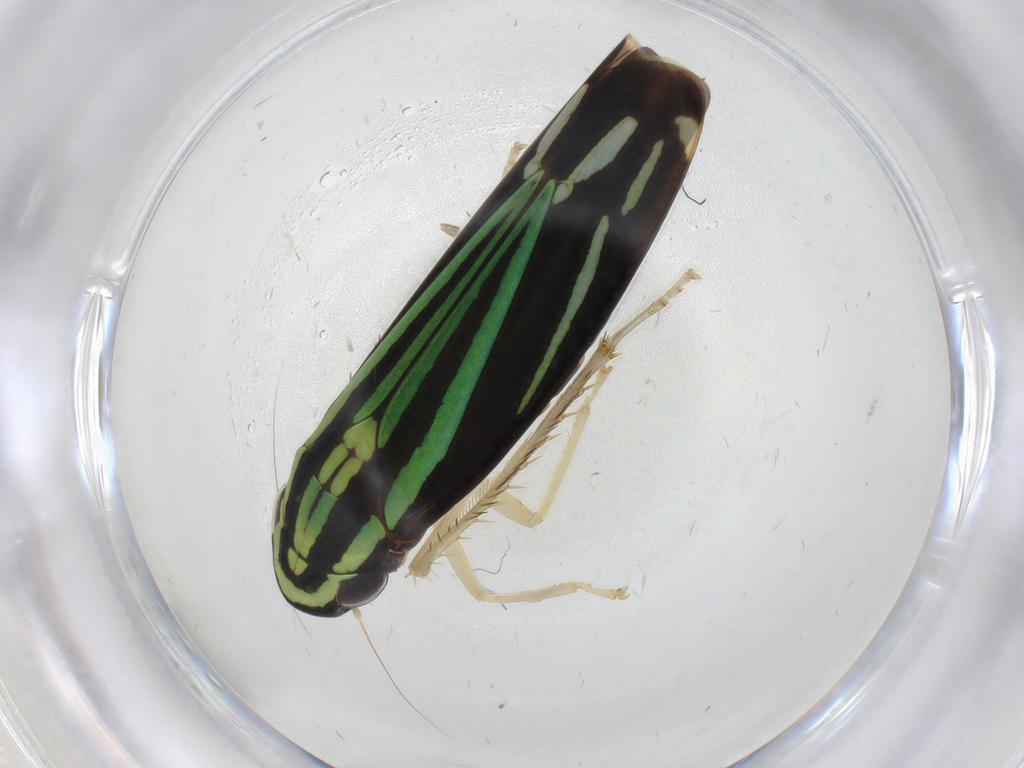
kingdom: Animalia
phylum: Arthropoda
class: Insecta
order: Hemiptera
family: Cicadellidae
